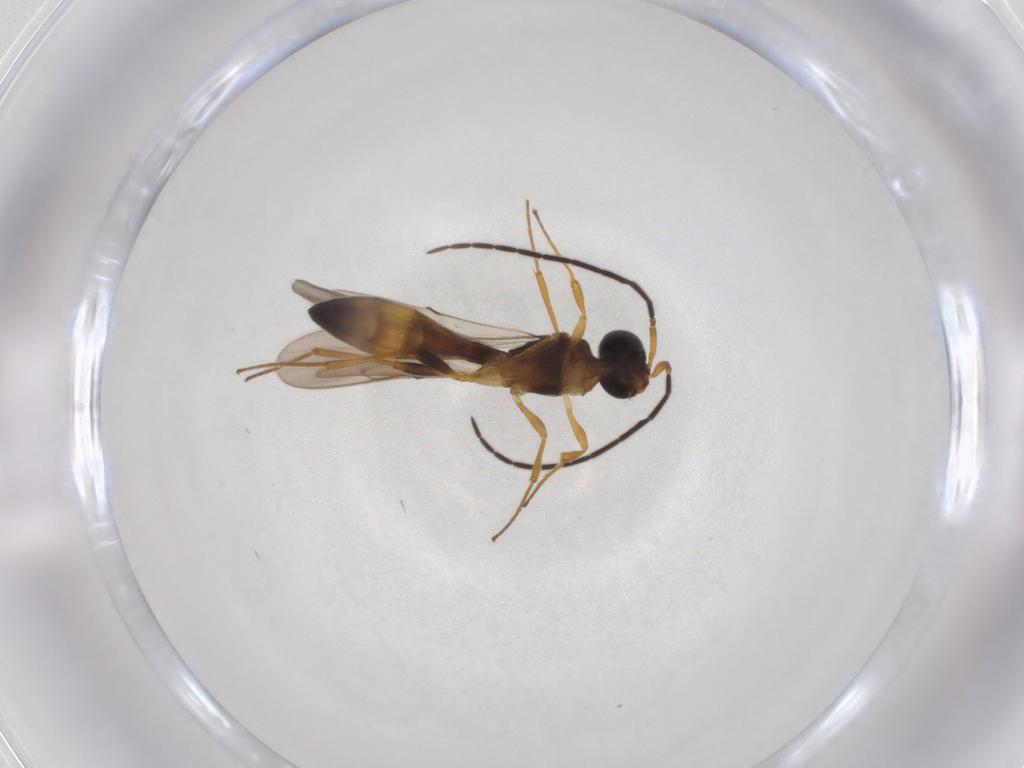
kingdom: Animalia
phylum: Arthropoda
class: Insecta
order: Hymenoptera
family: Scelionidae
